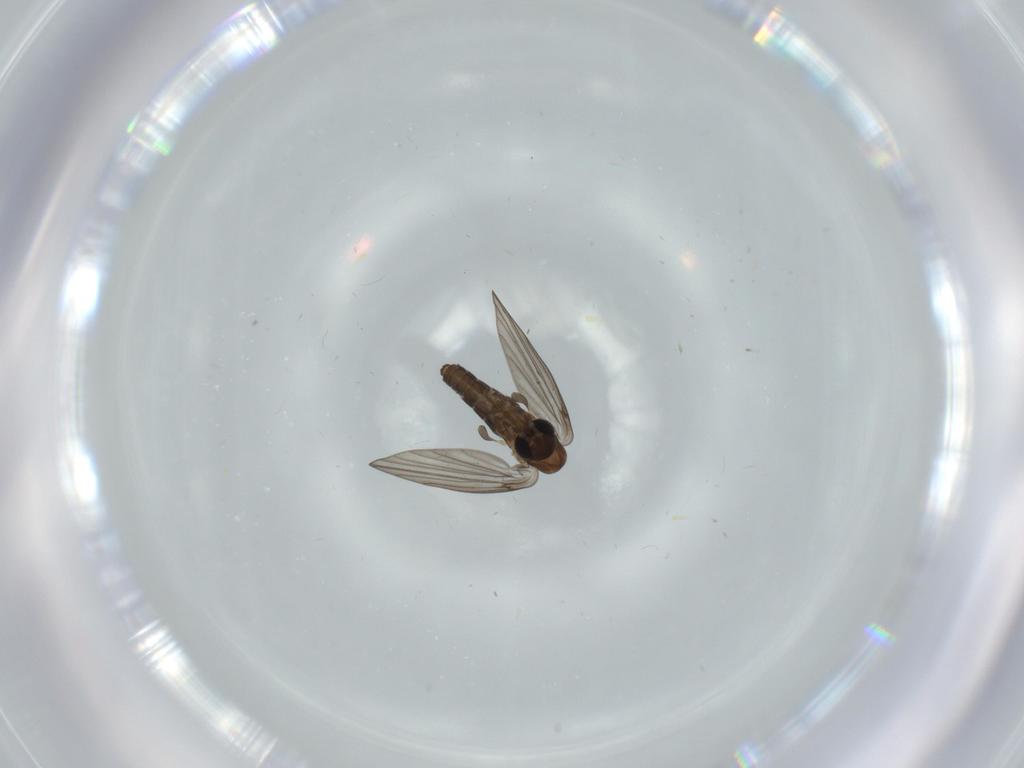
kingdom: Animalia
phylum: Arthropoda
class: Insecta
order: Diptera
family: Psychodidae
